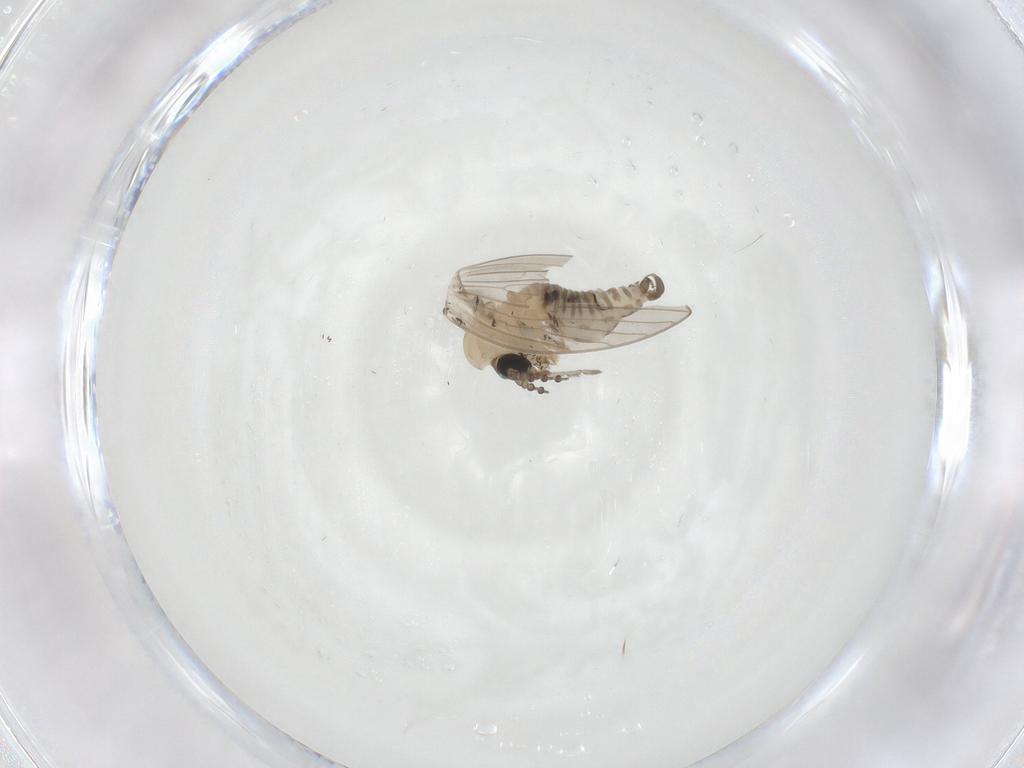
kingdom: Animalia
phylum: Arthropoda
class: Insecta
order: Diptera
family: Psychodidae
